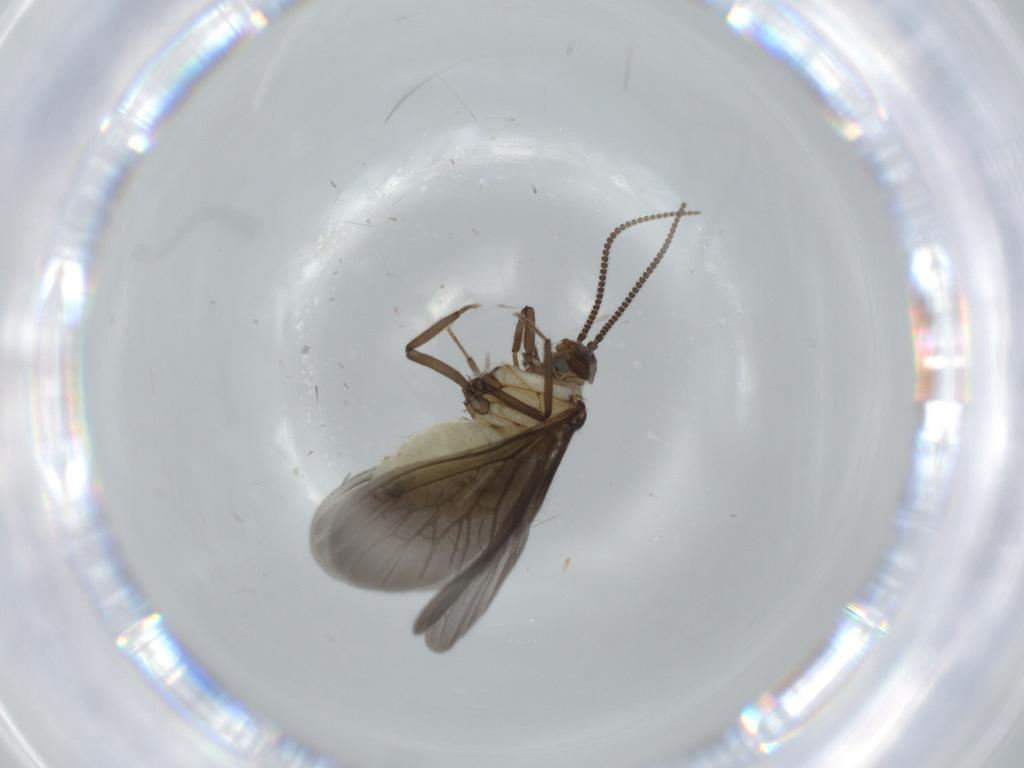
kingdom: Animalia
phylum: Arthropoda
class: Insecta
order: Neuroptera
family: Coniopterygidae
